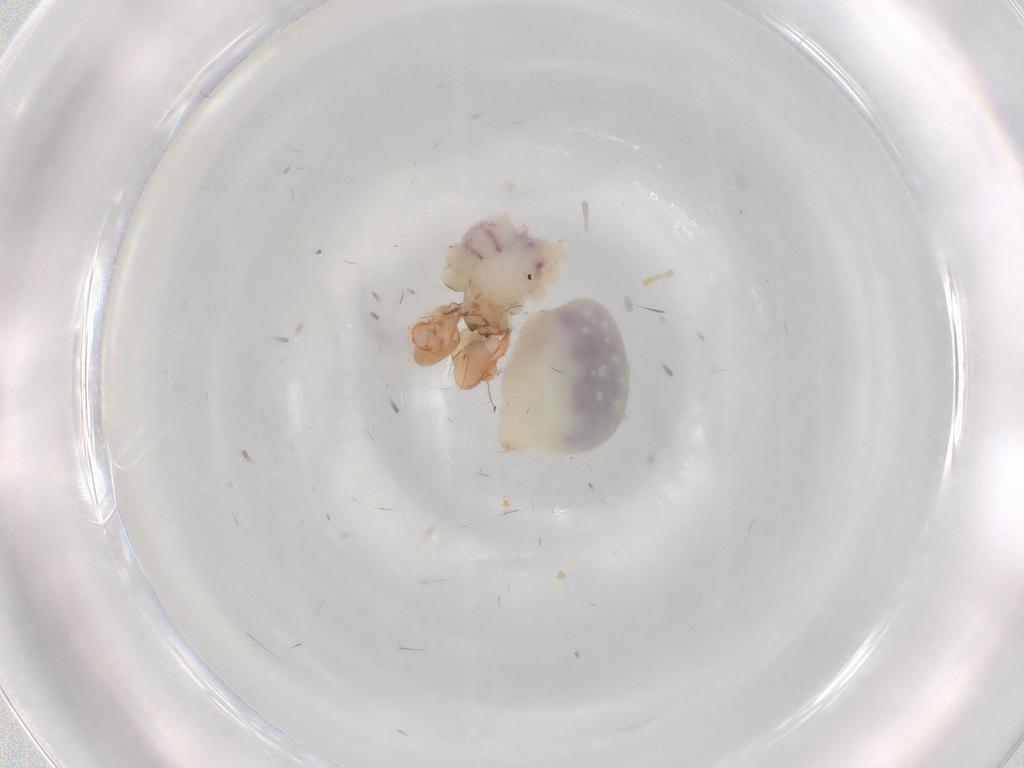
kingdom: Animalia
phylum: Arthropoda
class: Arachnida
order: Araneae
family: Pholcidae
